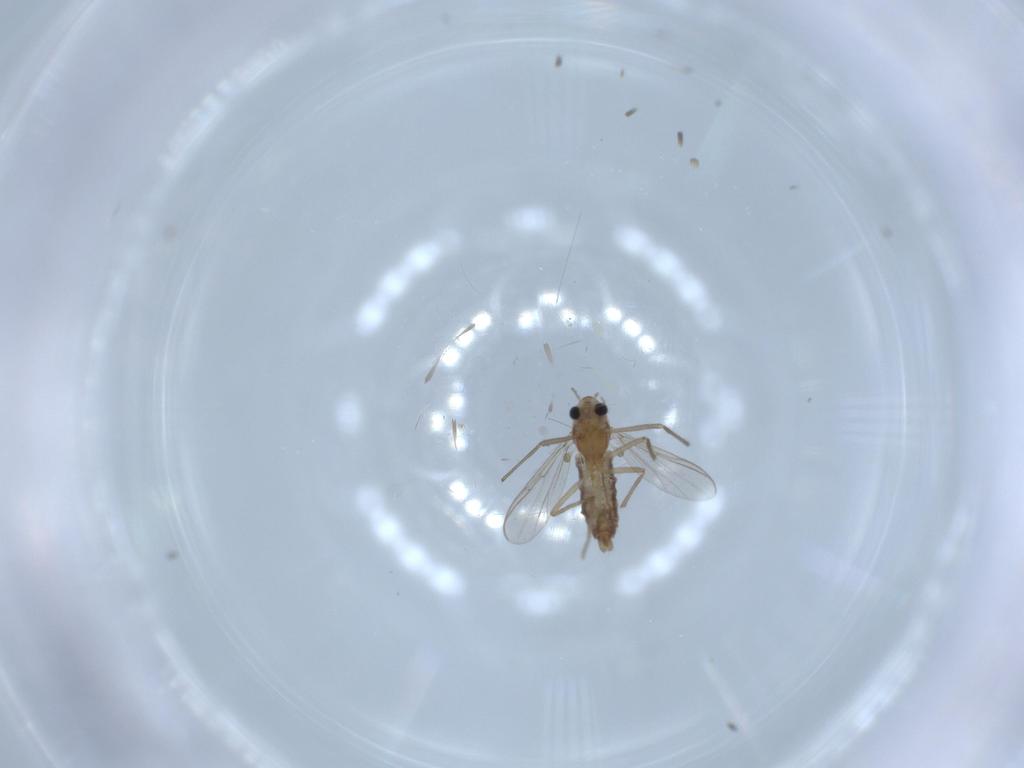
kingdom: Animalia
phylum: Arthropoda
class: Insecta
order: Diptera
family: Chironomidae
